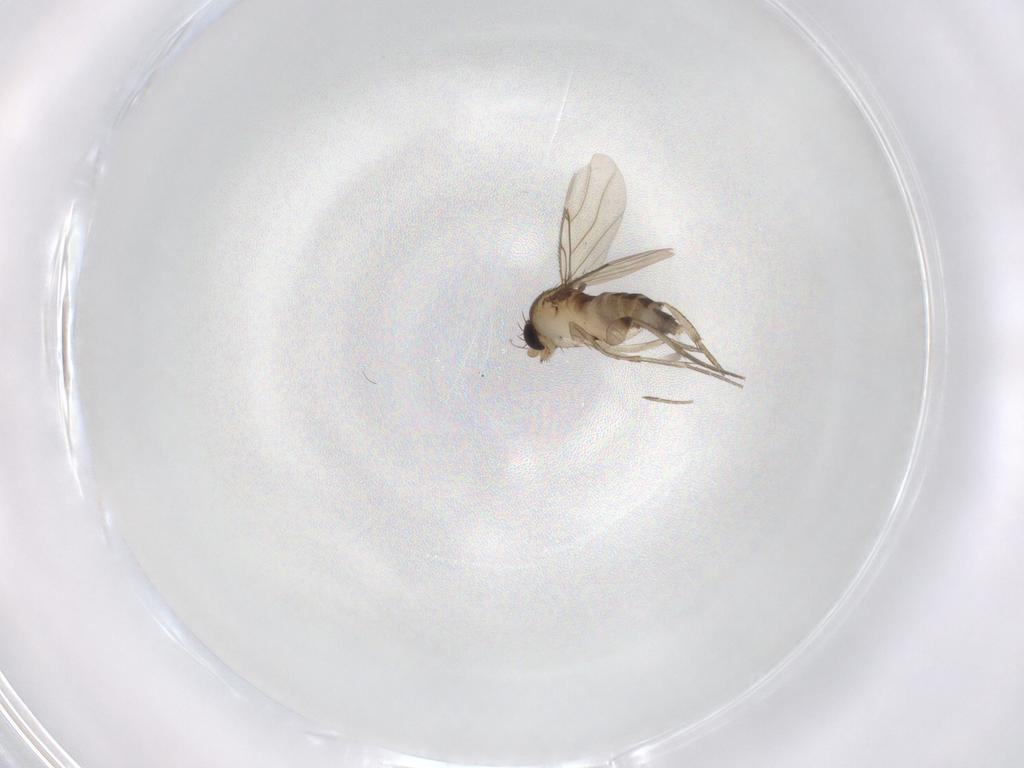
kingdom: Animalia
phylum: Arthropoda
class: Insecta
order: Diptera
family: Phoridae
